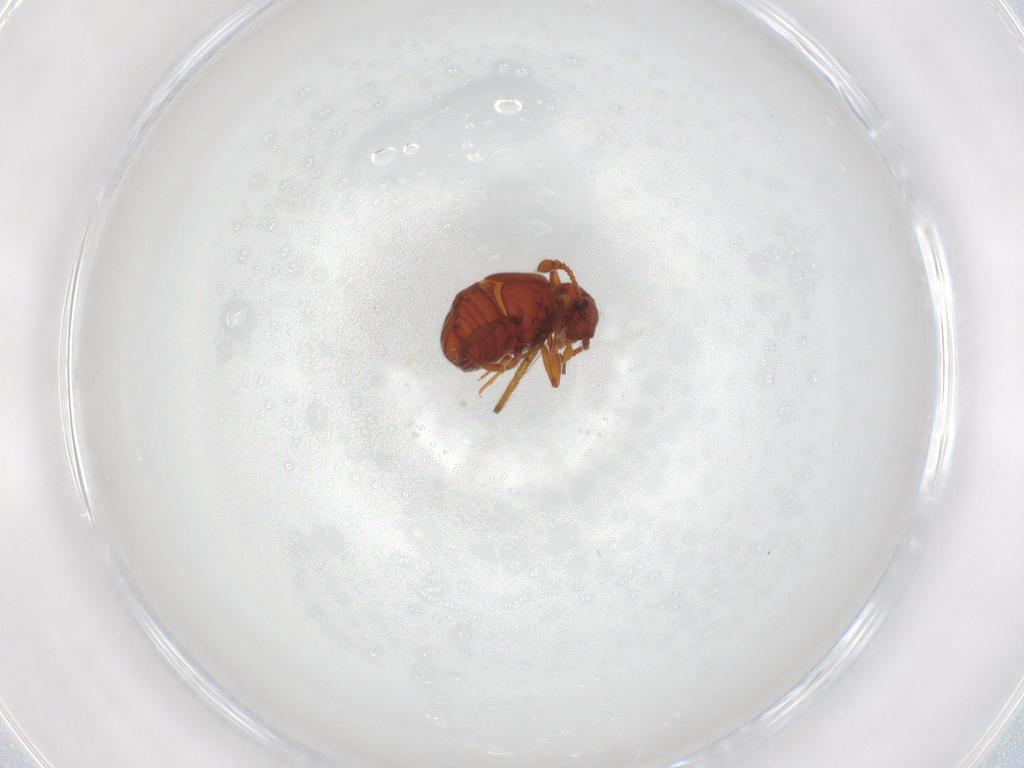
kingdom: Animalia
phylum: Arthropoda
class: Insecta
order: Coleoptera
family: Staphylinidae
